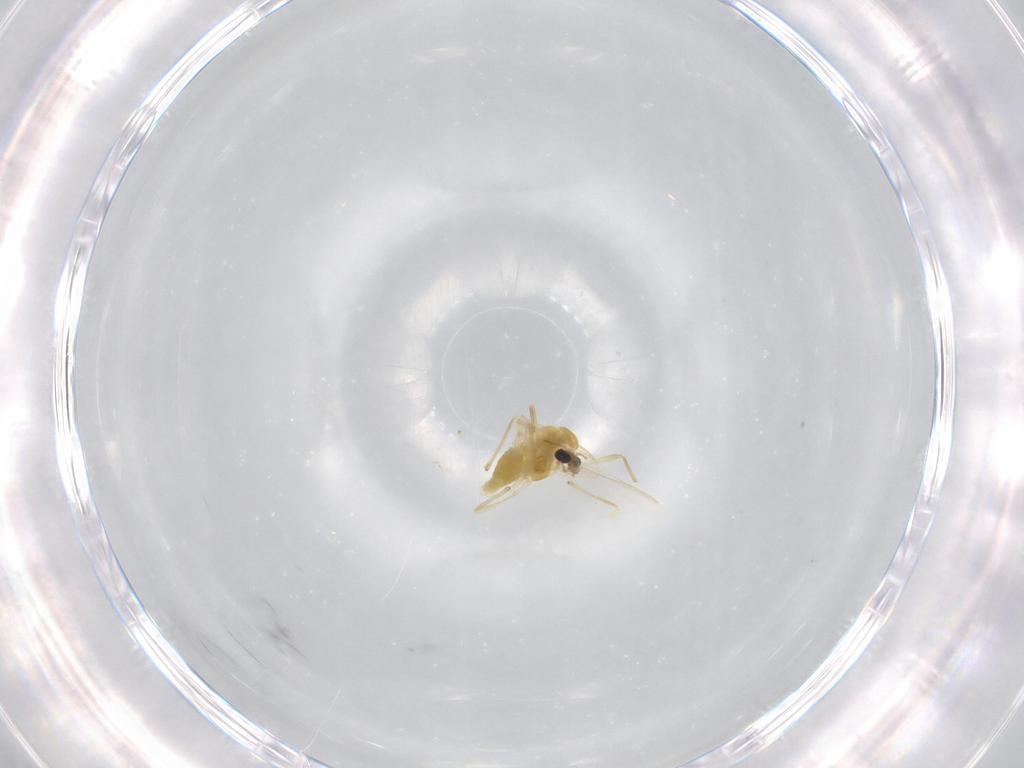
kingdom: Animalia
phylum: Arthropoda
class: Insecta
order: Diptera
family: Chironomidae
